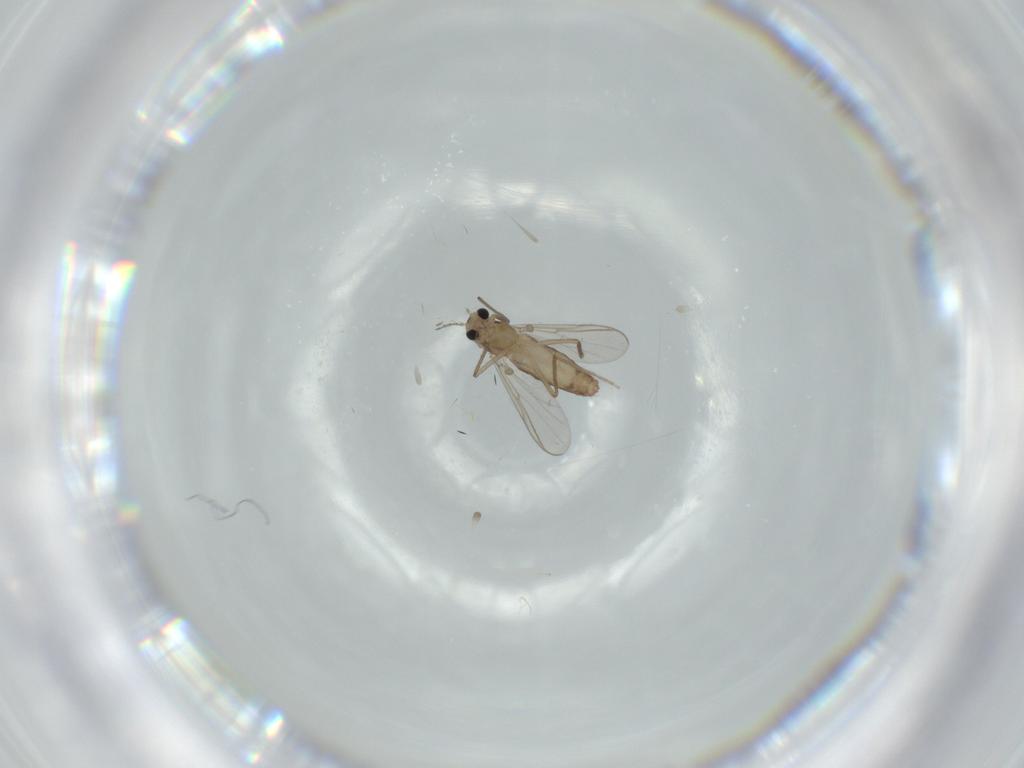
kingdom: Animalia
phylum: Arthropoda
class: Insecta
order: Diptera
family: Chironomidae
